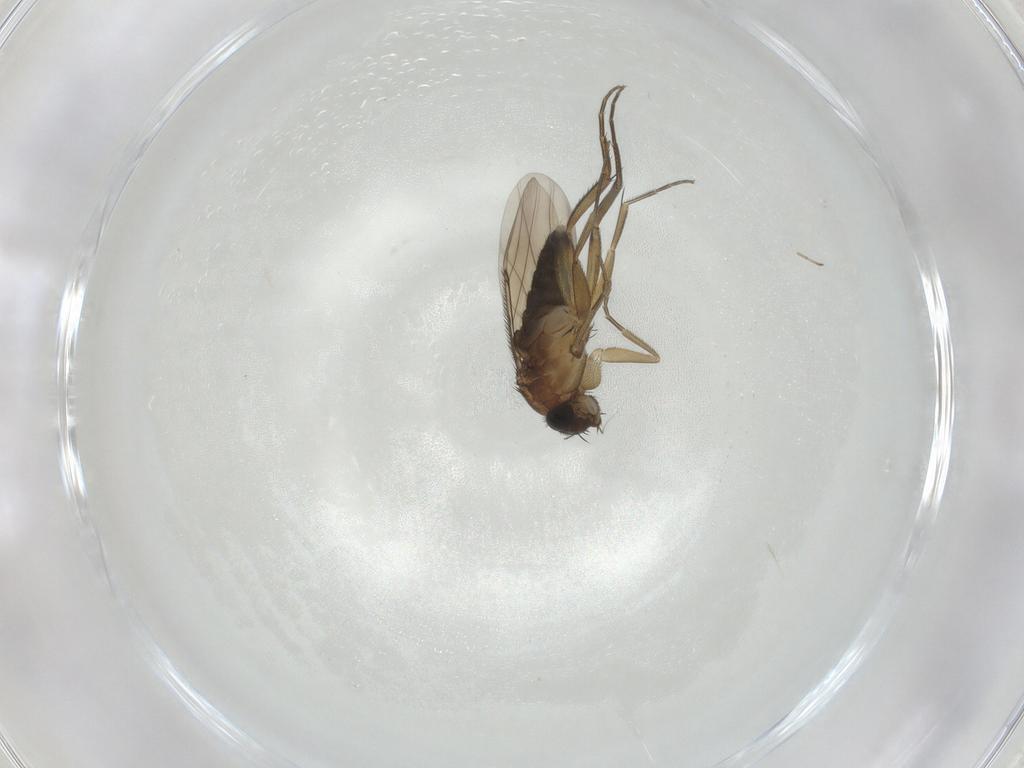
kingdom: Animalia
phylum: Arthropoda
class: Insecta
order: Diptera
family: Phoridae
